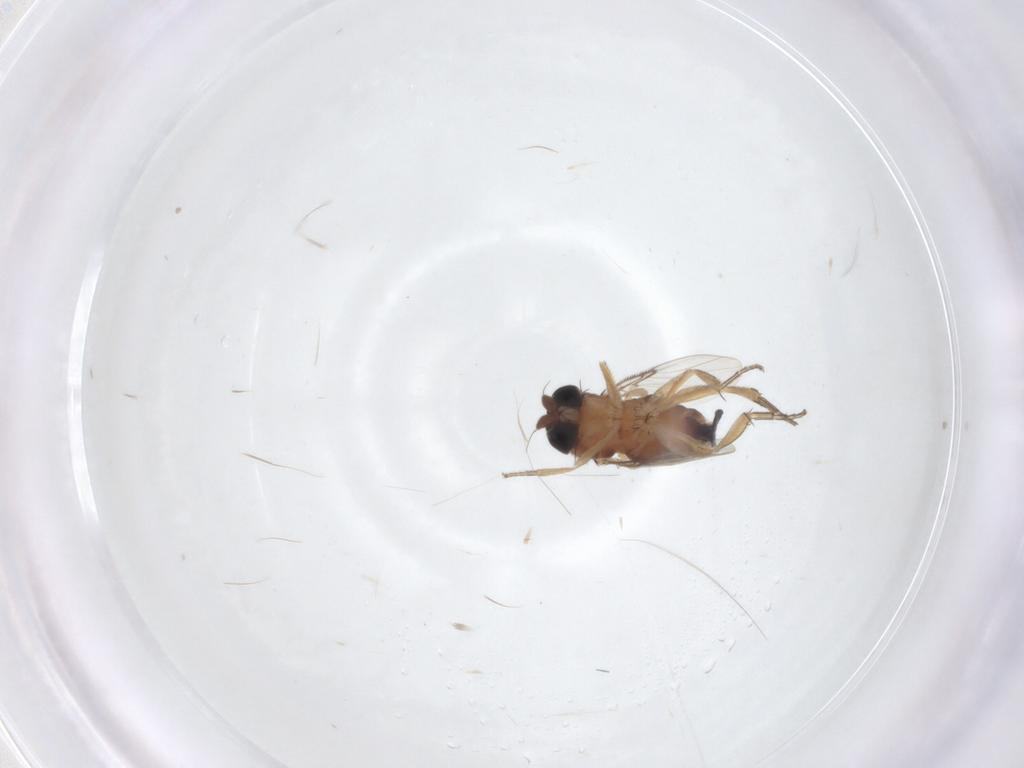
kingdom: Animalia
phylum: Arthropoda
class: Insecta
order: Diptera
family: Phoridae
